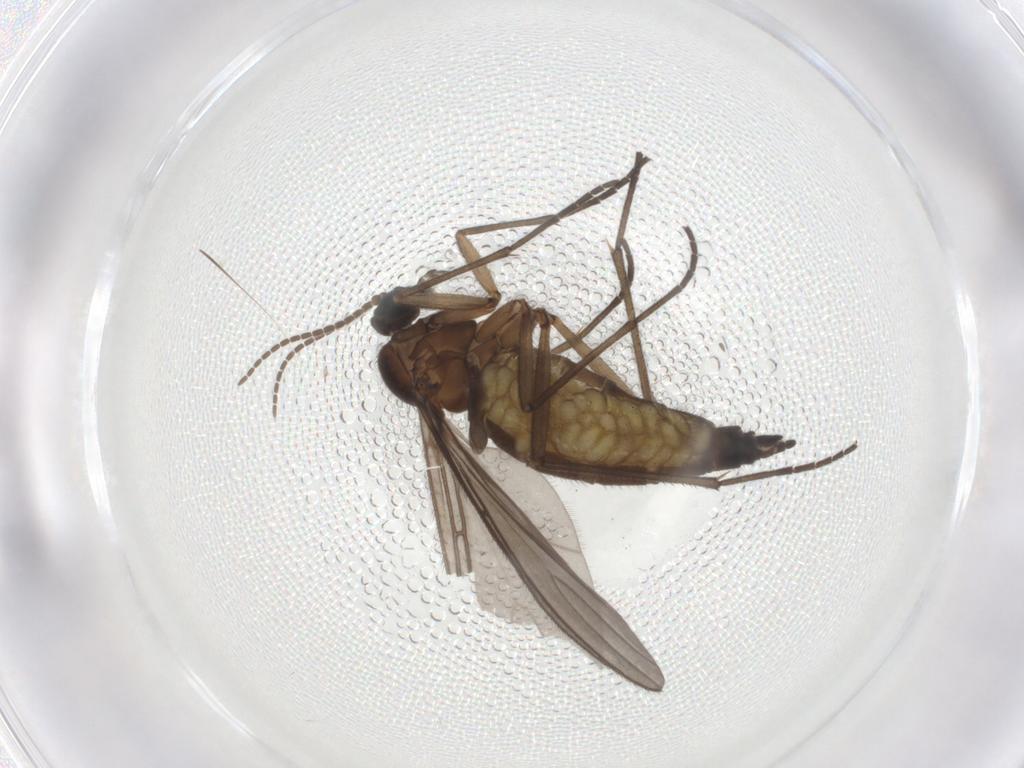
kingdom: Animalia
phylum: Arthropoda
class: Insecta
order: Diptera
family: Sciaridae
